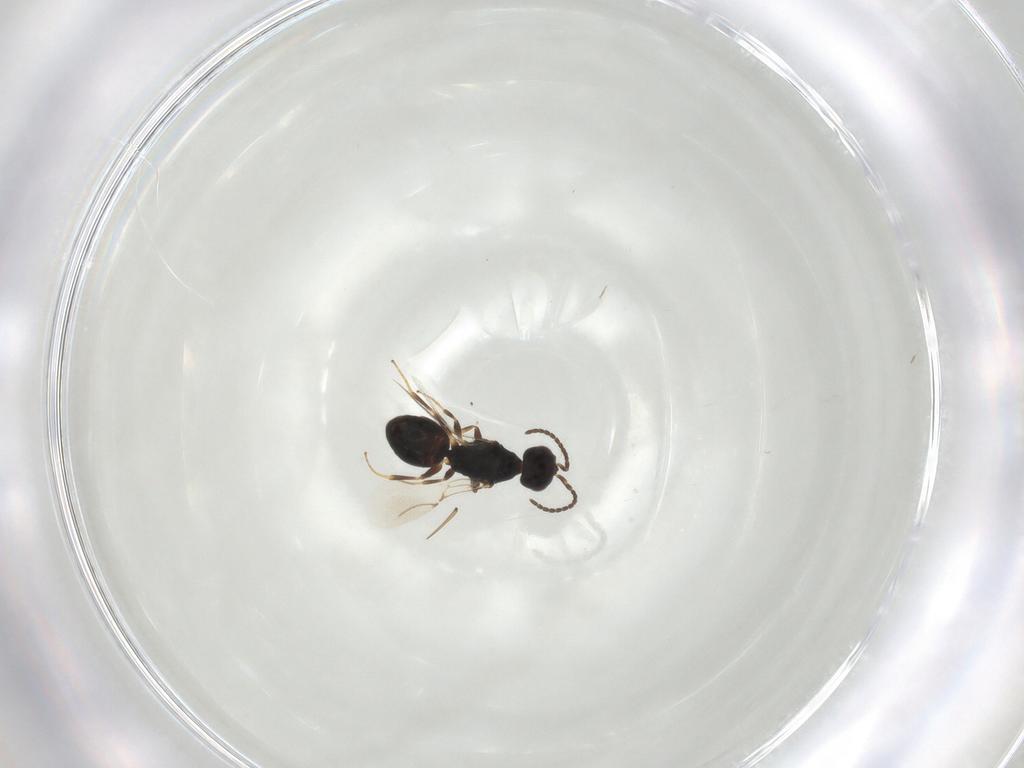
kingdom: Animalia
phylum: Arthropoda
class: Insecta
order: Hymenoptera
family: Bethylidae
